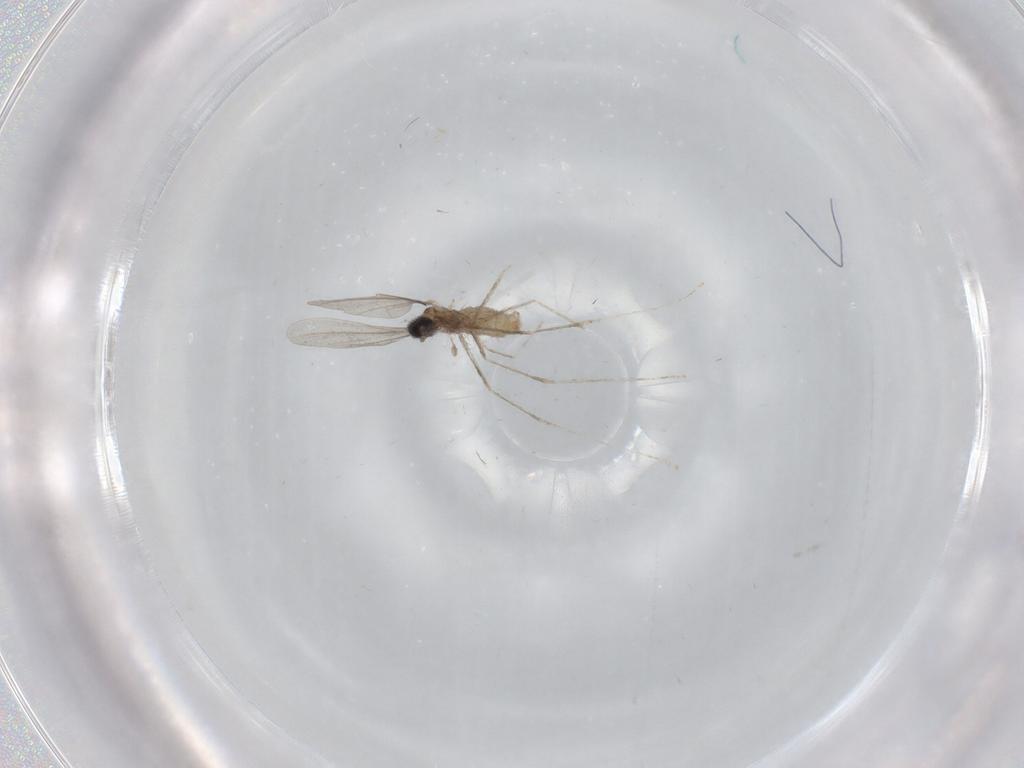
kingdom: Animalia
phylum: Arthropoda
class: Insecta
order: Diptera
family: Cecidomyiidae
